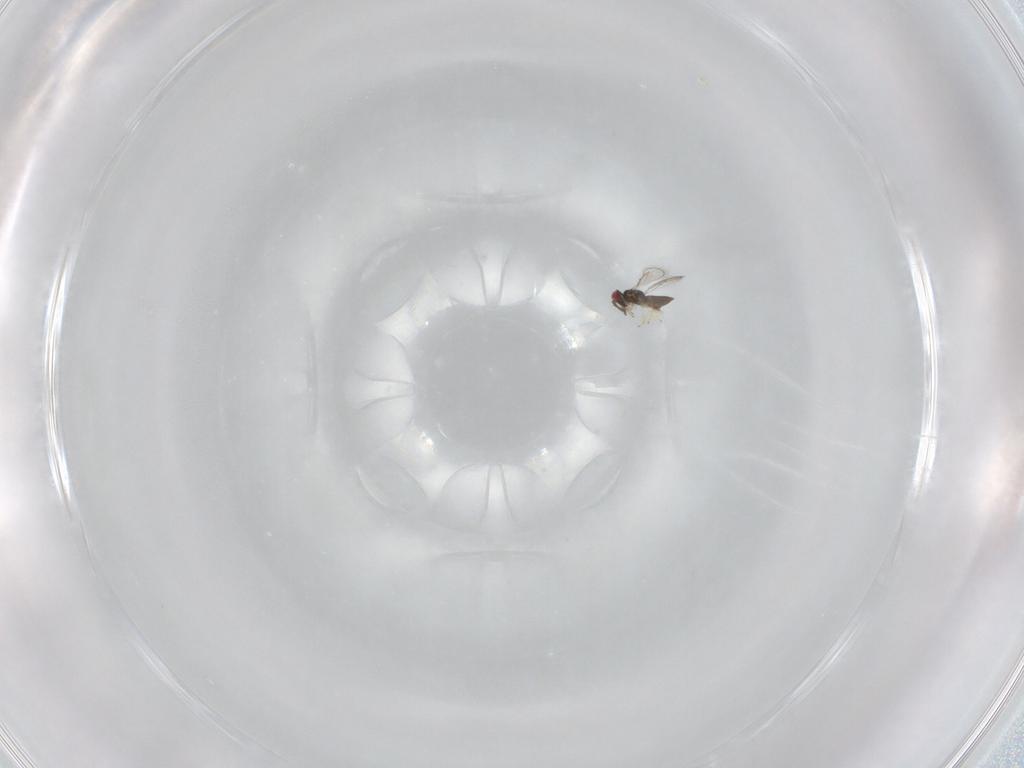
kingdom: Animalia
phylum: Arthropoda
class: Insecta
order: Hymenoptera
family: Eulophidae
